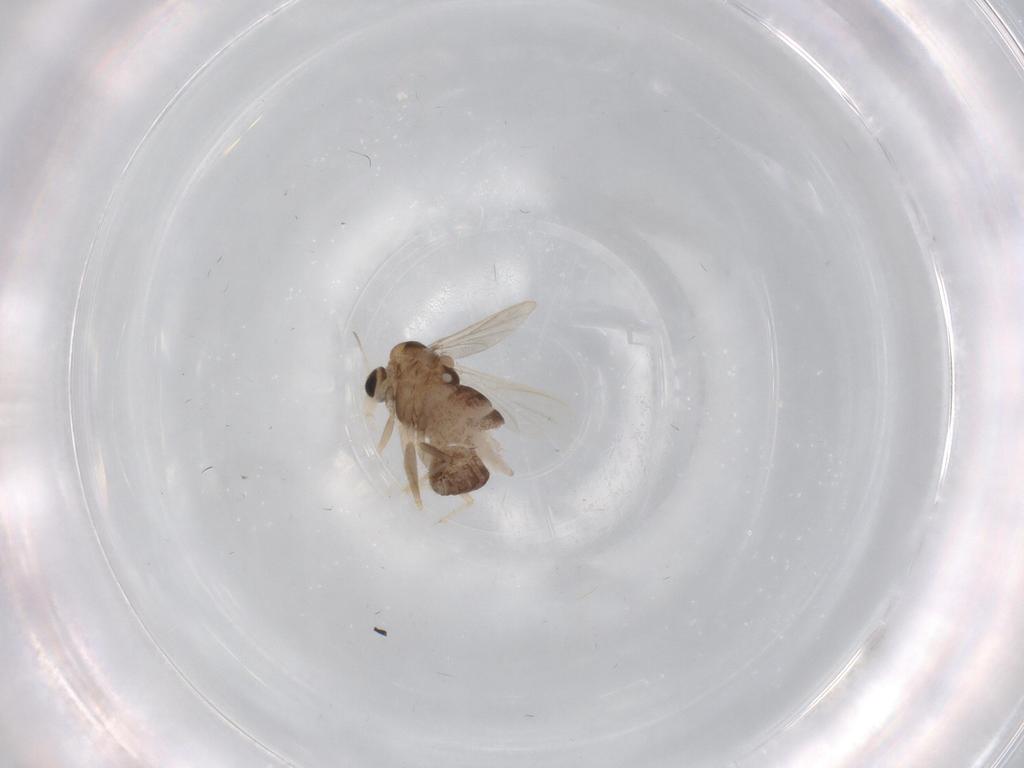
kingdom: Animalia
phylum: Arthropoda
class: Insecta
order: Diptera
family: Chironomidae
